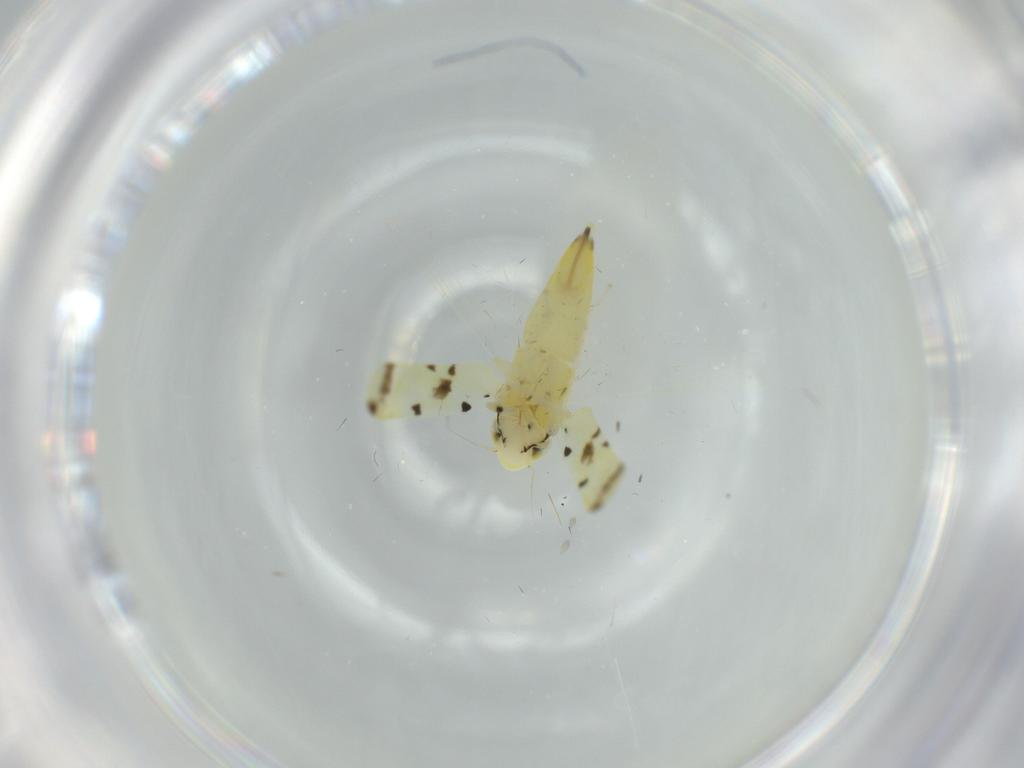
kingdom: Animalia
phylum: Arthropoda
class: Insecta
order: Hemiptera
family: Cicadellidae
